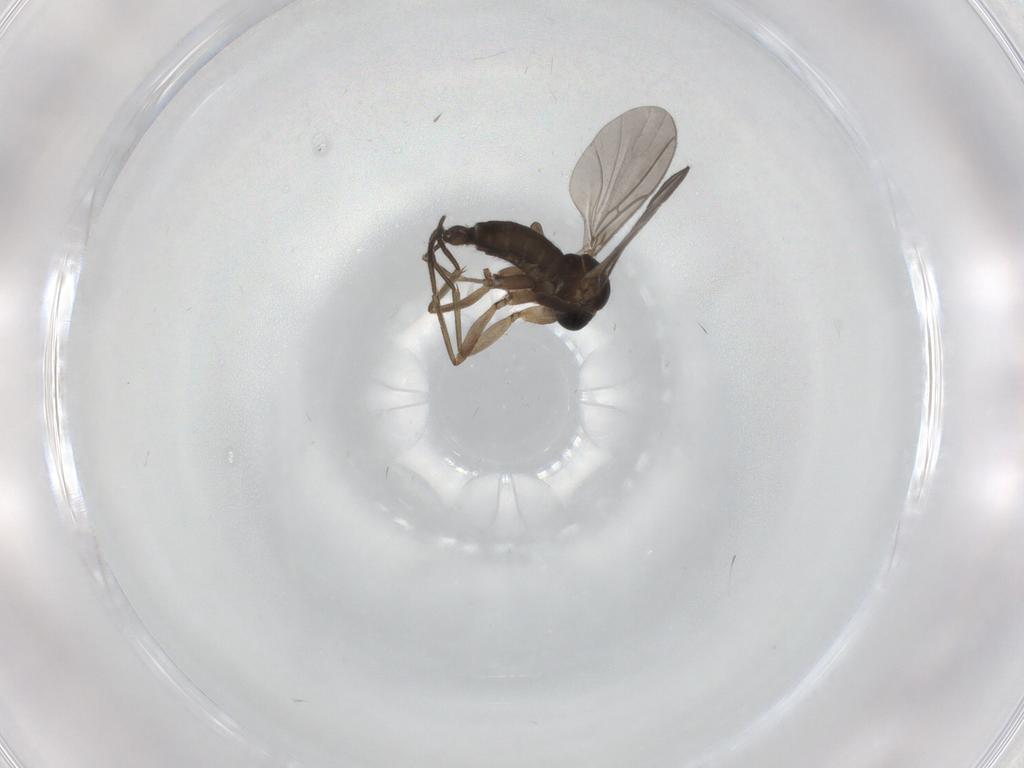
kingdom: Animalia
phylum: Arthropoda
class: Insecta
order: Diptera
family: Sciaridae
